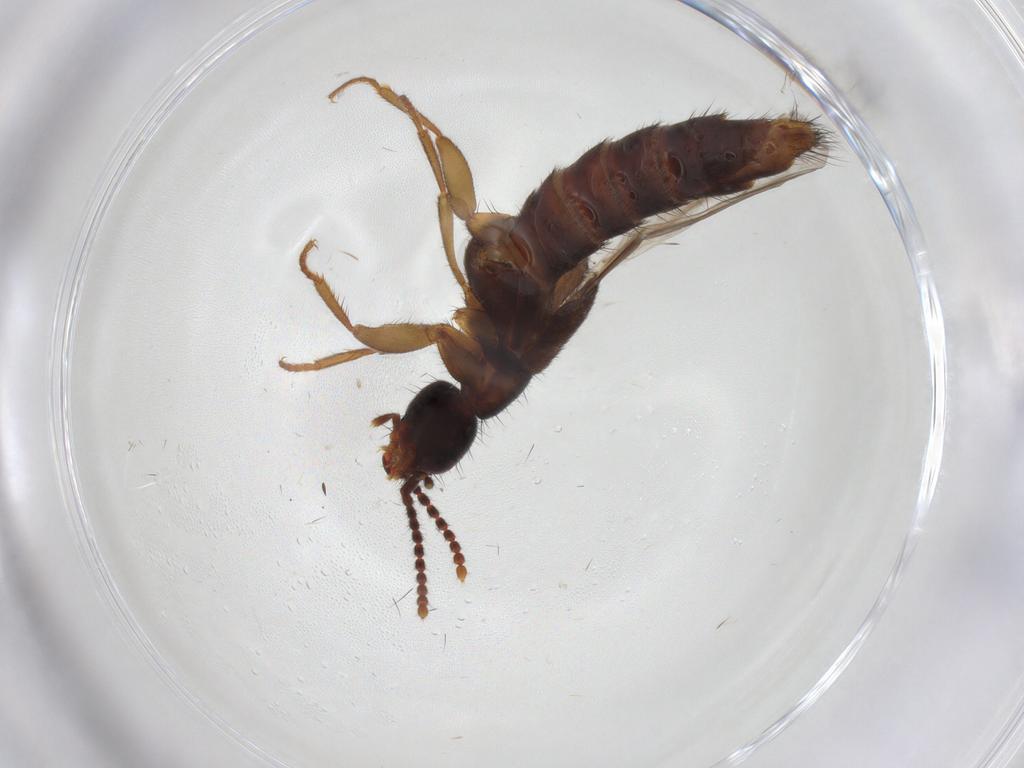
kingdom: Animalia
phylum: Arthropoda
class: Insecta
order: Coleoptera
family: Staphylinidae
